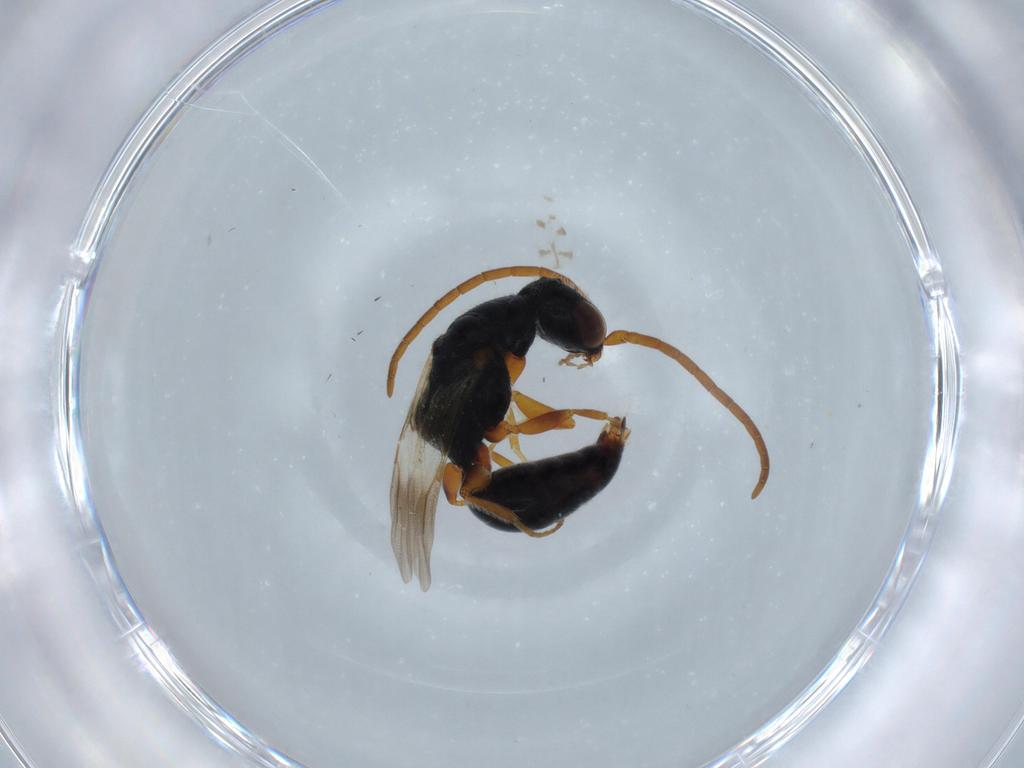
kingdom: Animalia
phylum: Arthropoda
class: Insecta
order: Hymenoptera
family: Bethylidae
